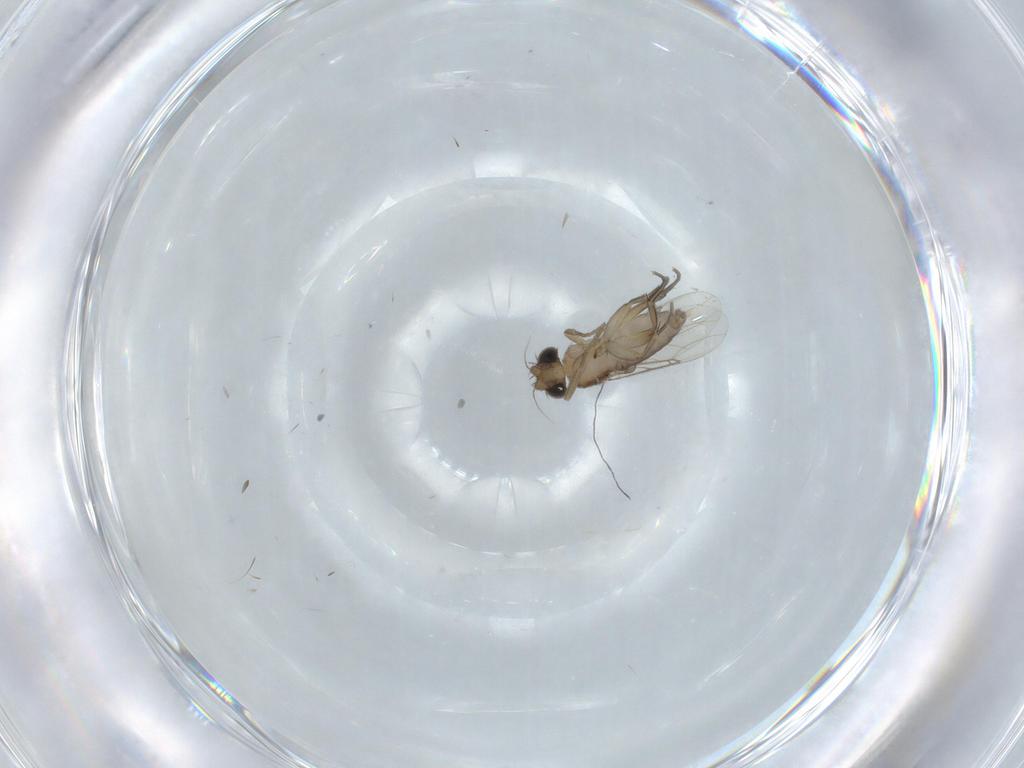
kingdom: Animalia
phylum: Arthropoda
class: Insecta
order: Diptera
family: Phoridae
